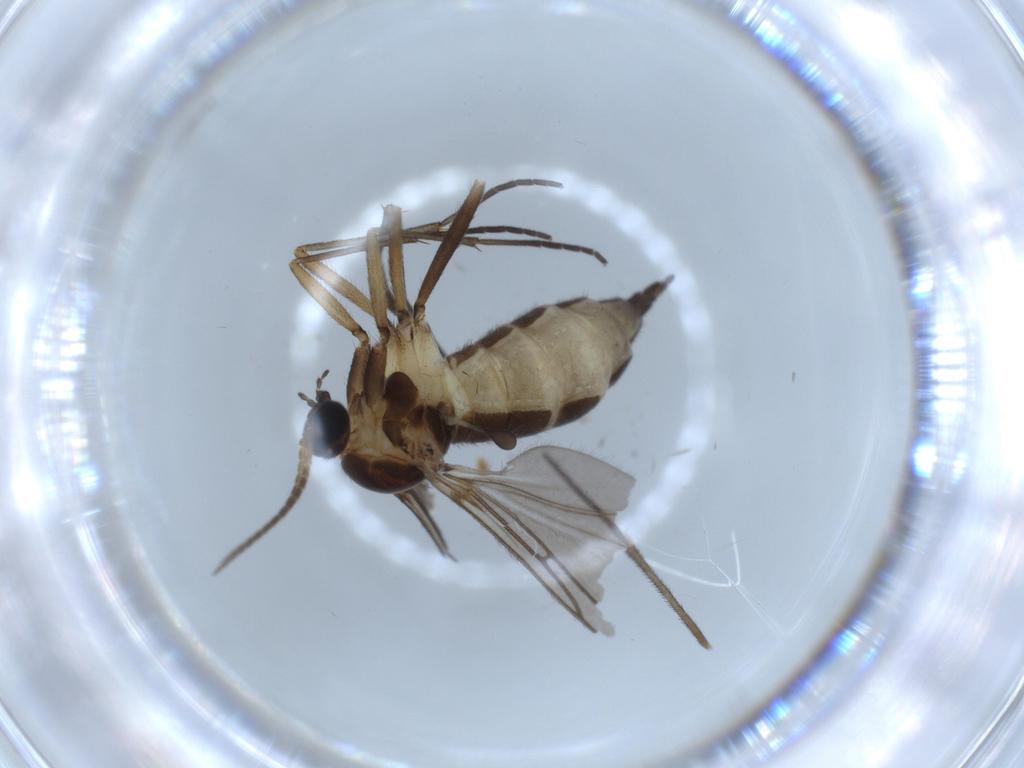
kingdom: Animalia
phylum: Arthropoda
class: Insecta
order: Diptera
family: Sciaridae
